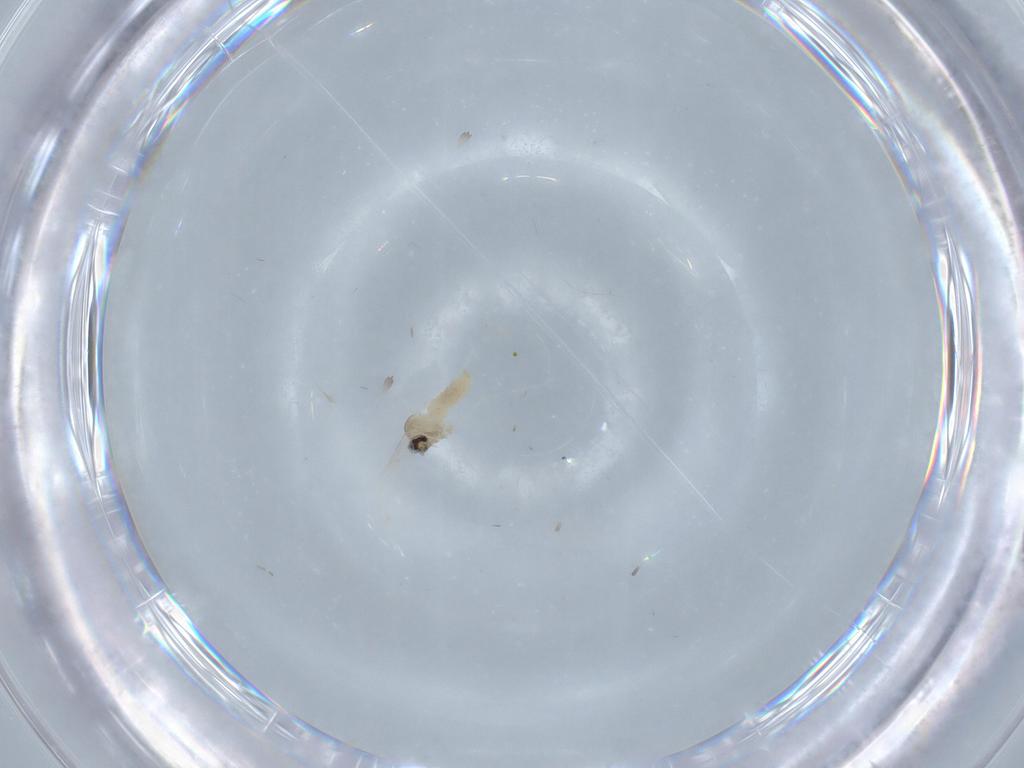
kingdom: Animalia
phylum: Arthropoda
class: Insecta
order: Diptera
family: Cecidomyiidae
